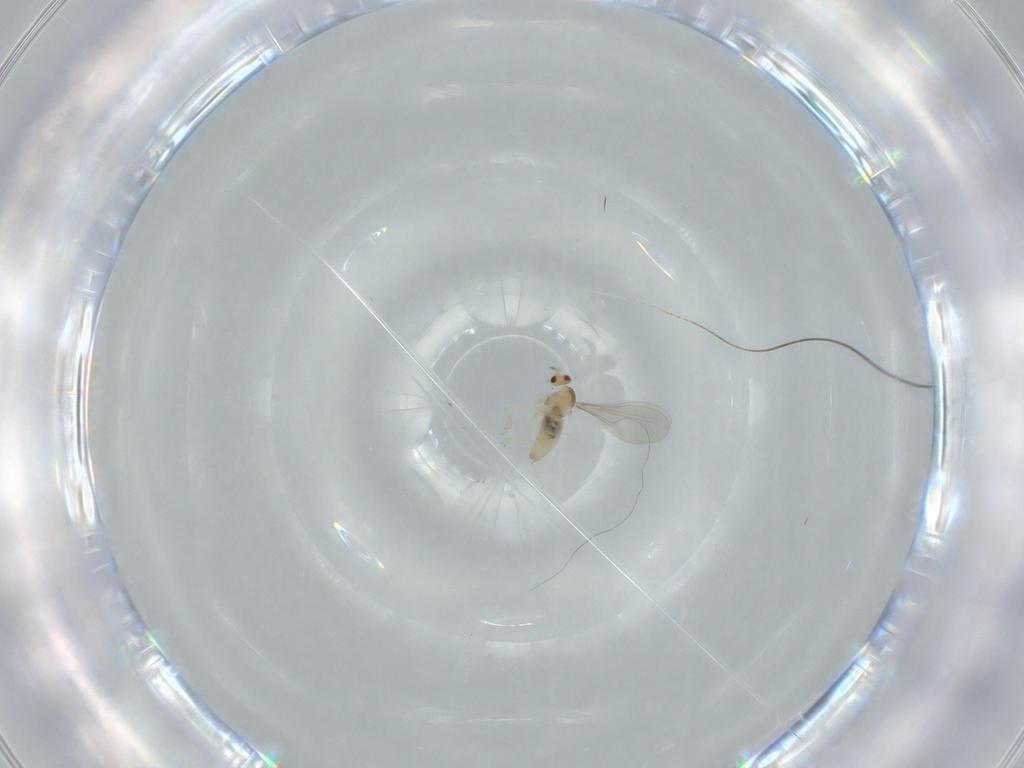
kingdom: Animalia
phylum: Arthropoda
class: Insecta
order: Diptera
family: Cecidomyiidae
